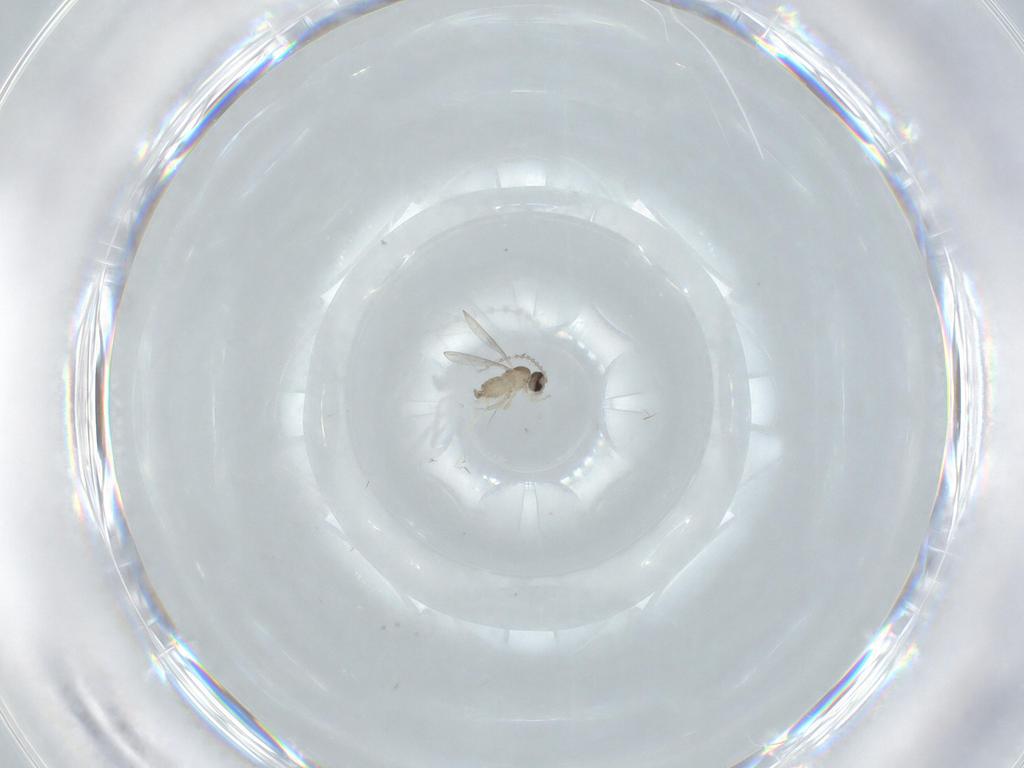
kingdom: Animalia
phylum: Arthropoda
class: Insecta
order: Diptera
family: Cecidomyiidae
